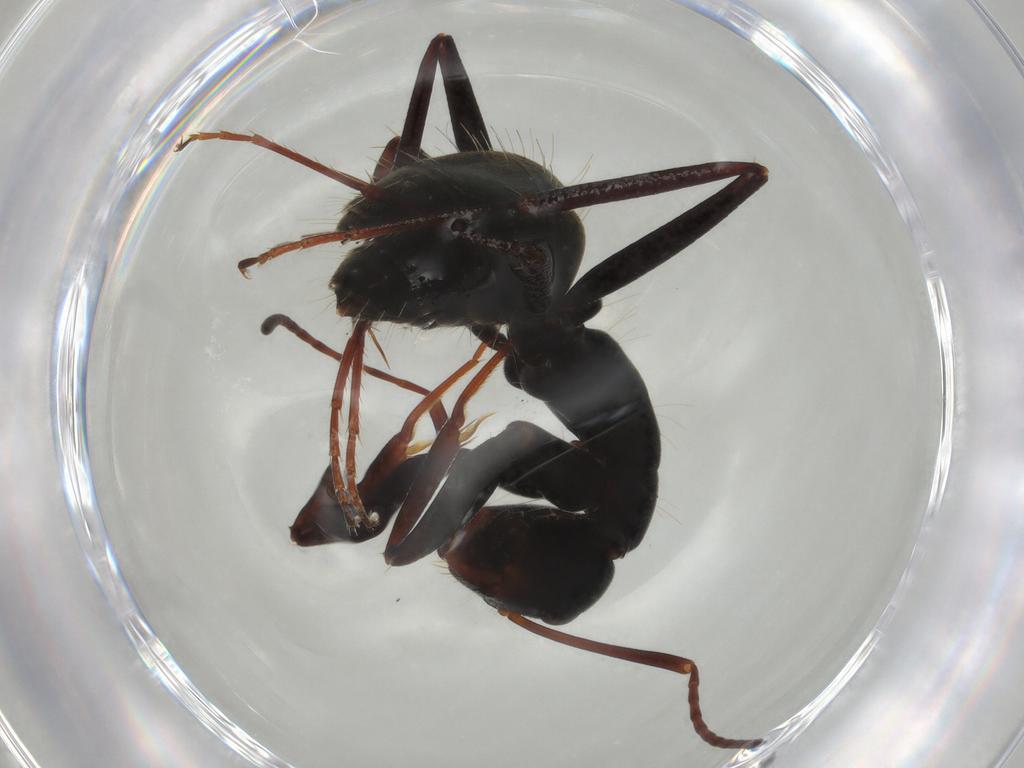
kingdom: Animalia
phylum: Arthropoda
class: Insecta
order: Hymenoptera
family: Formicidae
